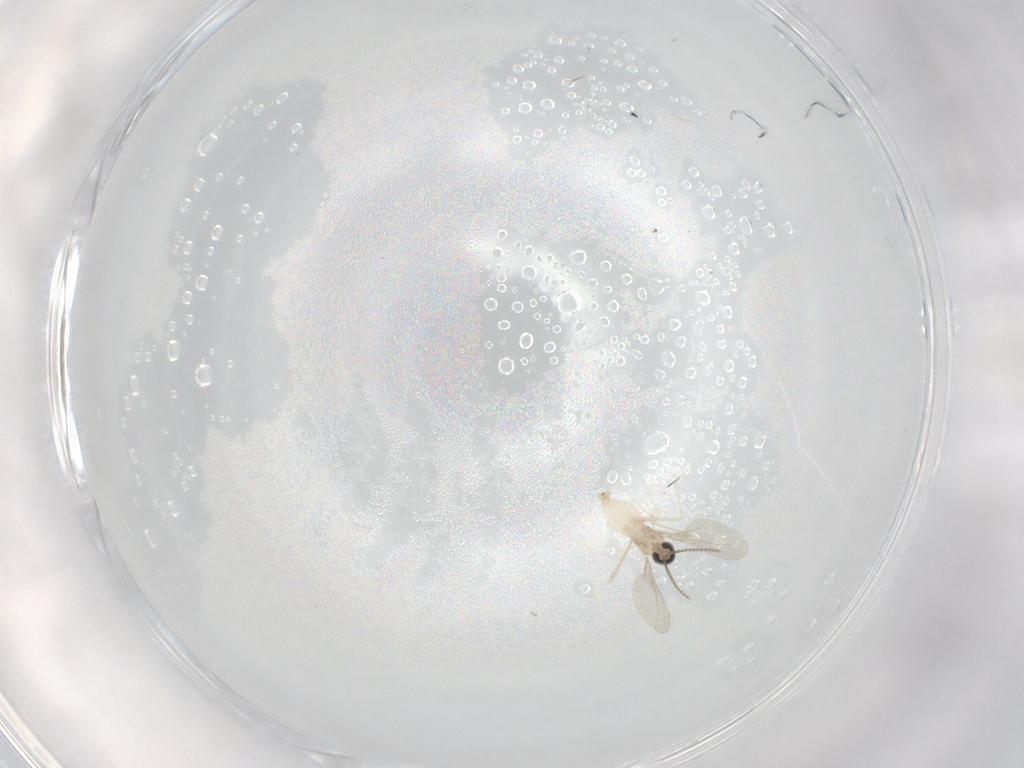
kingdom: Animalia
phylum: Arthropoda
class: Insecta
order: Diptera
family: Chironomidae
